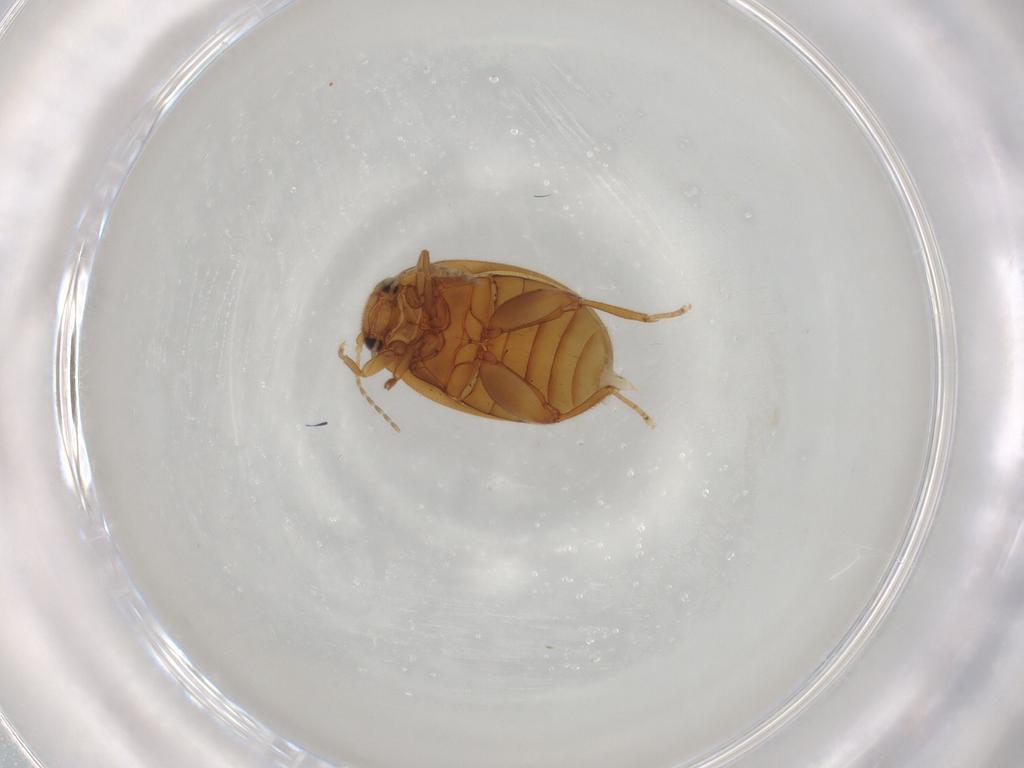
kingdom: Animalia
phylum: Arthropoda
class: Insecta
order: Coleoptera
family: Scirtidae
